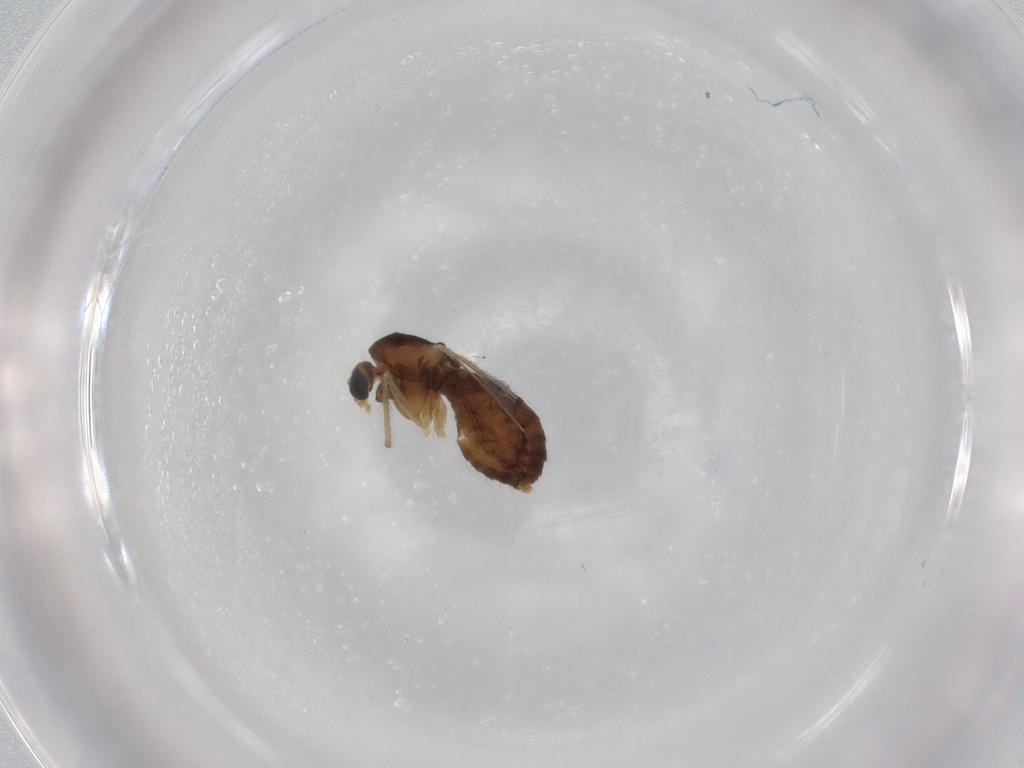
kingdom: Animalia
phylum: Arthropoda
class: Insecta
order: Diptera
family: Chironomidae
